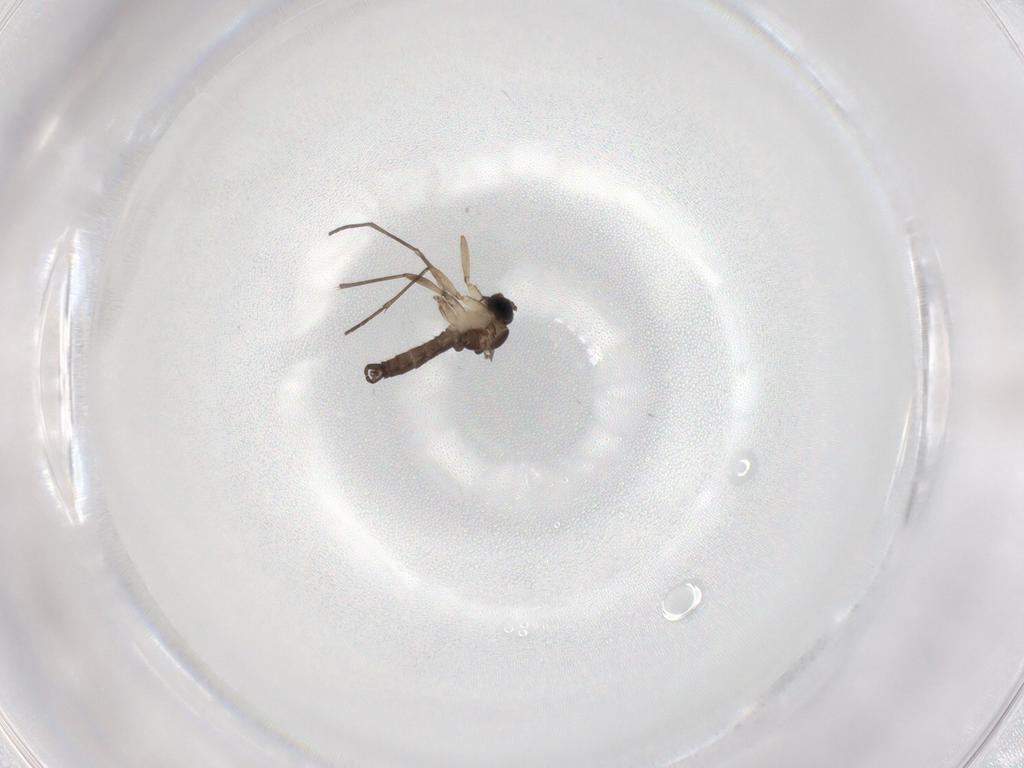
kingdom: Animalia
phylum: Arthropoda
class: Insecta
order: Diptera
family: Sciaridae
